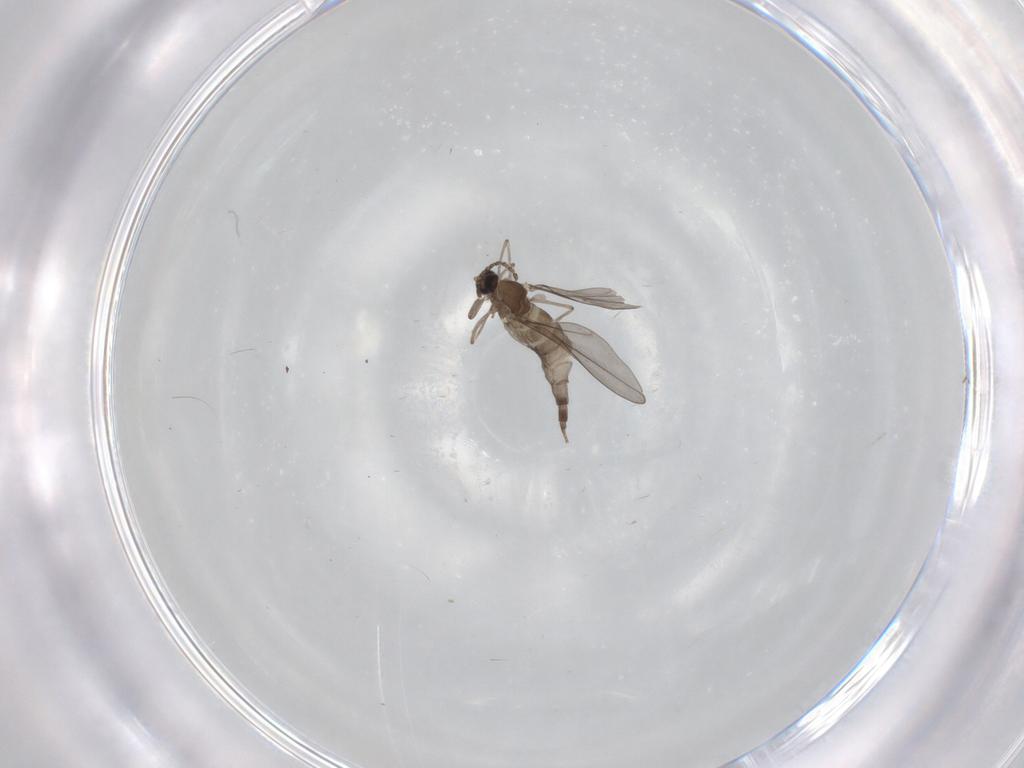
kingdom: Animalia
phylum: Arthropoda
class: Insecta
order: Diptera
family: Cecidomyiidae
